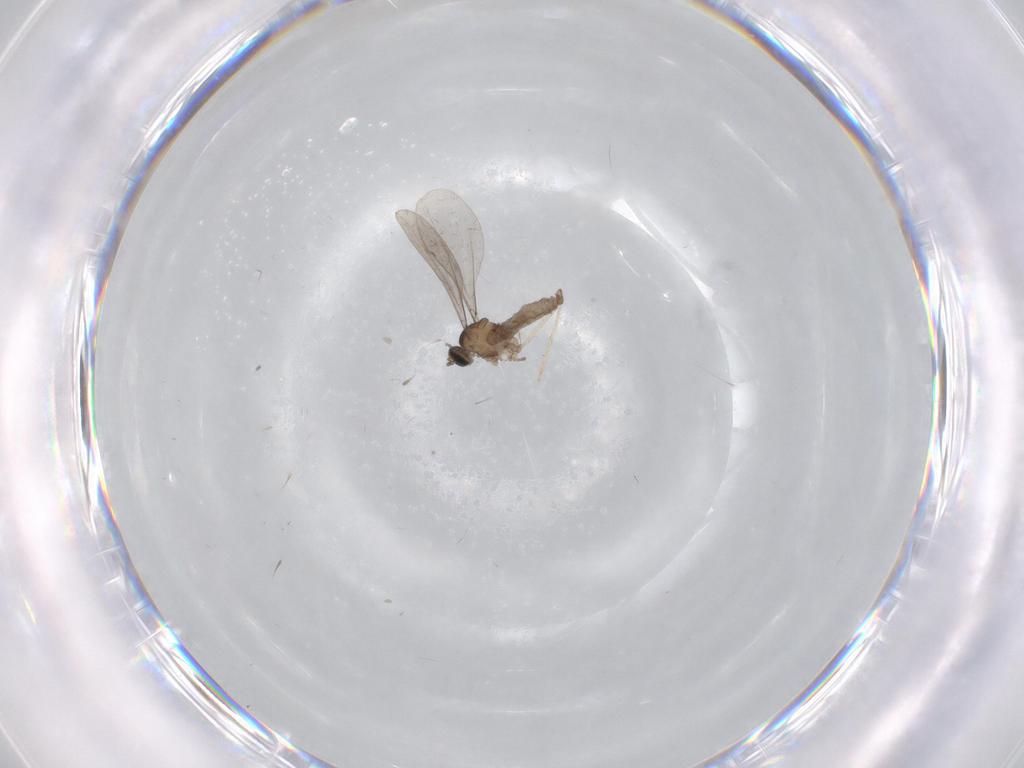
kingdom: Animalia
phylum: Arthropoda
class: Insecta
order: Diptera
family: Cecidomyiidae
